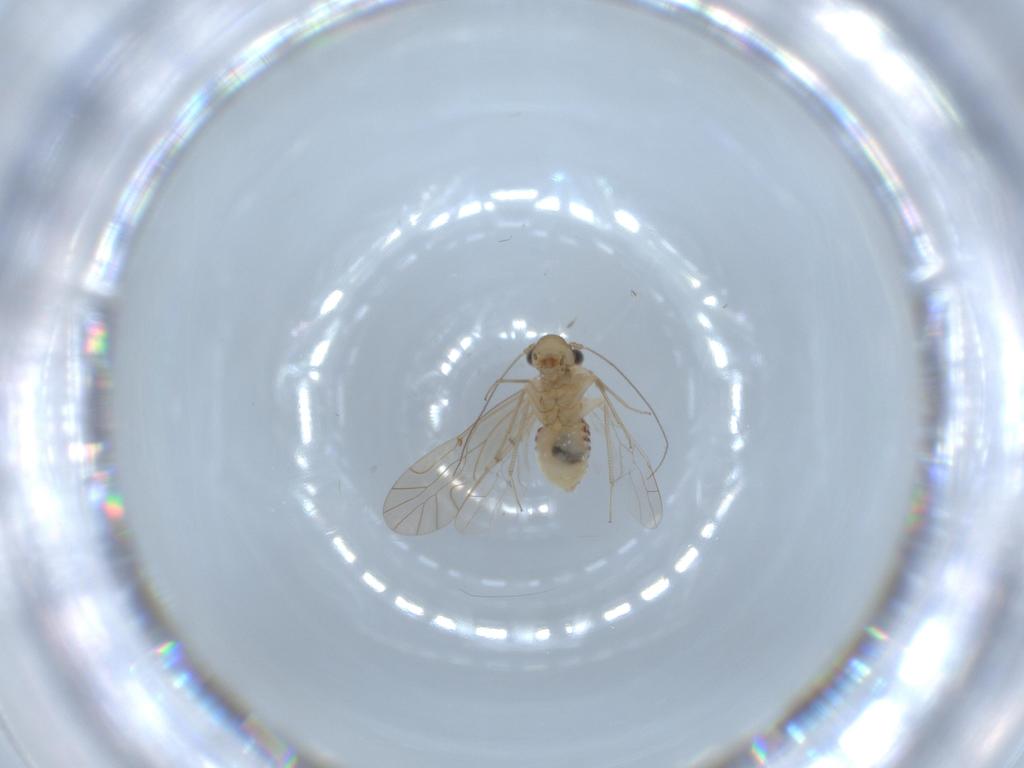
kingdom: Animalia
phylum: Arthropoda
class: Insecta
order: Psocodea
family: Lachesillidae
